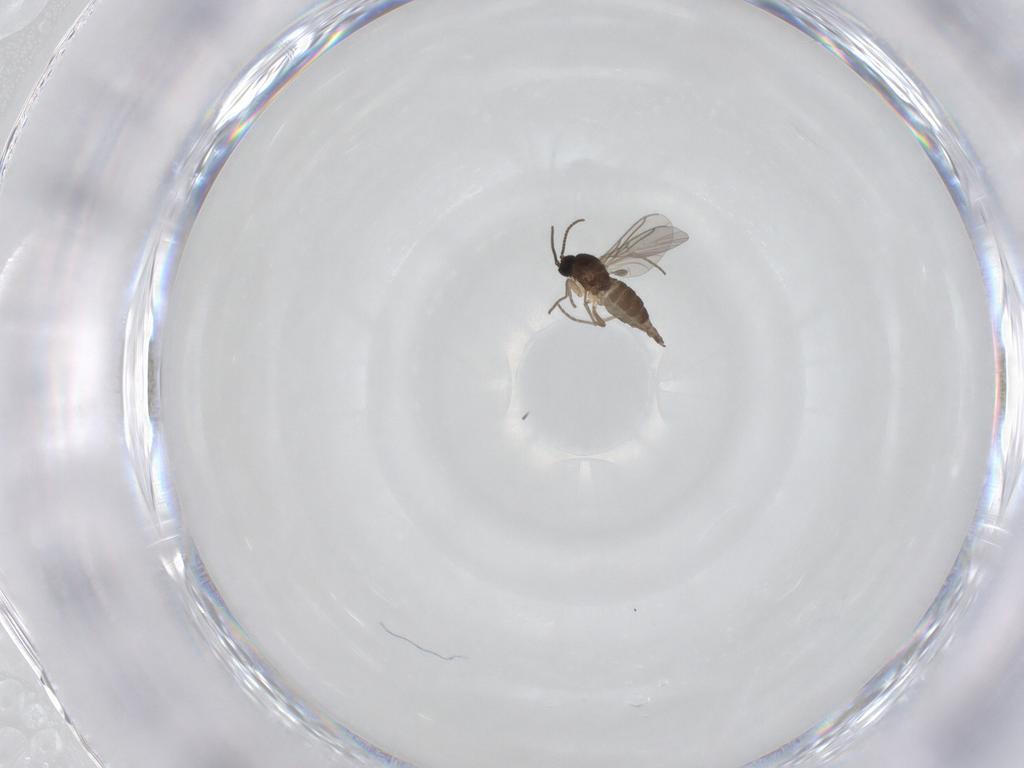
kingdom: Animalia
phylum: Arthropoda
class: Insecta
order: Diptera
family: Sciaridae
